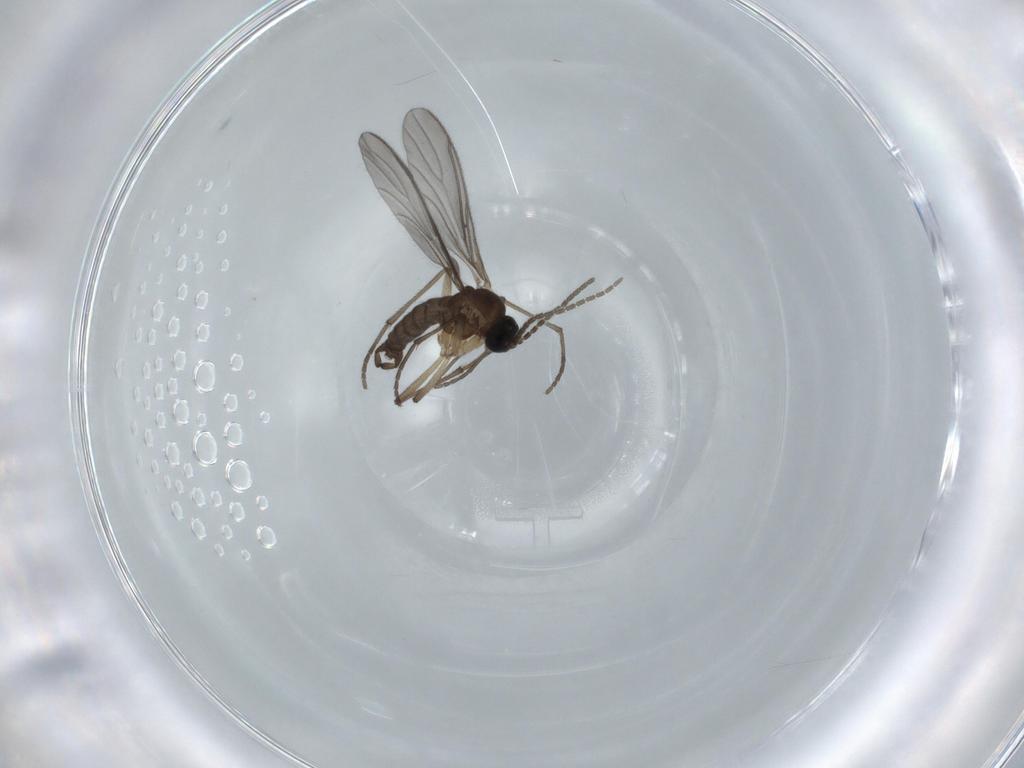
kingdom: Animalia
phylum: Arthropoda
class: Insecta
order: Diptera
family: Sciaridae
